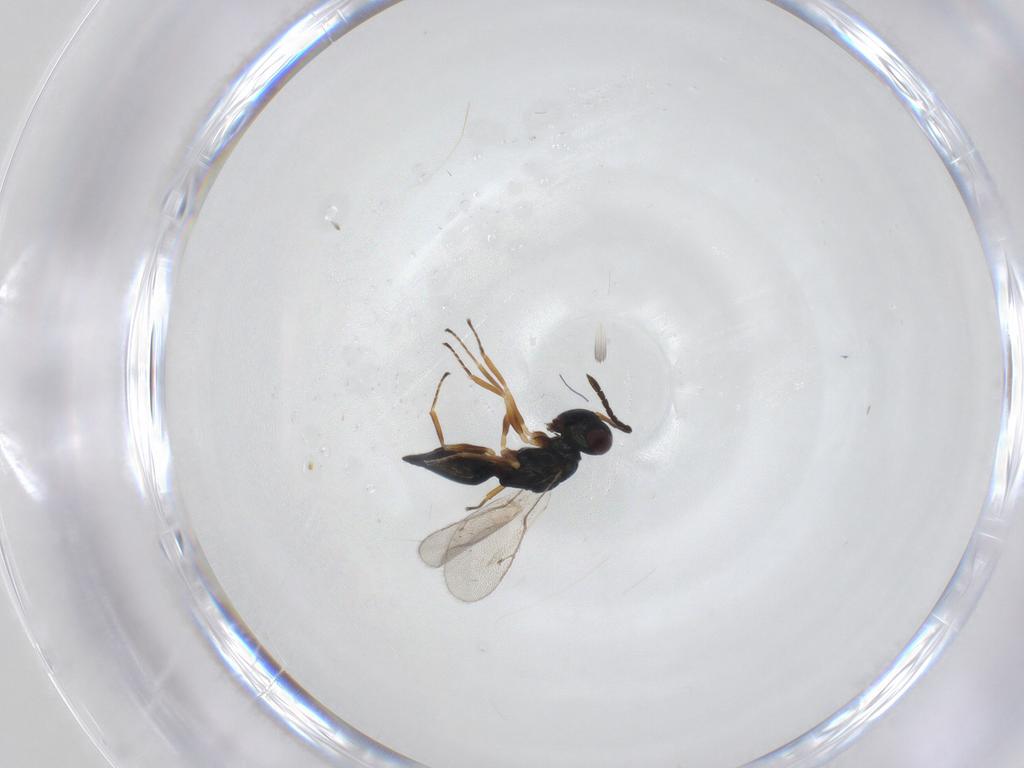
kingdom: Animalia
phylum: Arthropoda
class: Insecta
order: Hymenoptera
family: Pteromalidae
